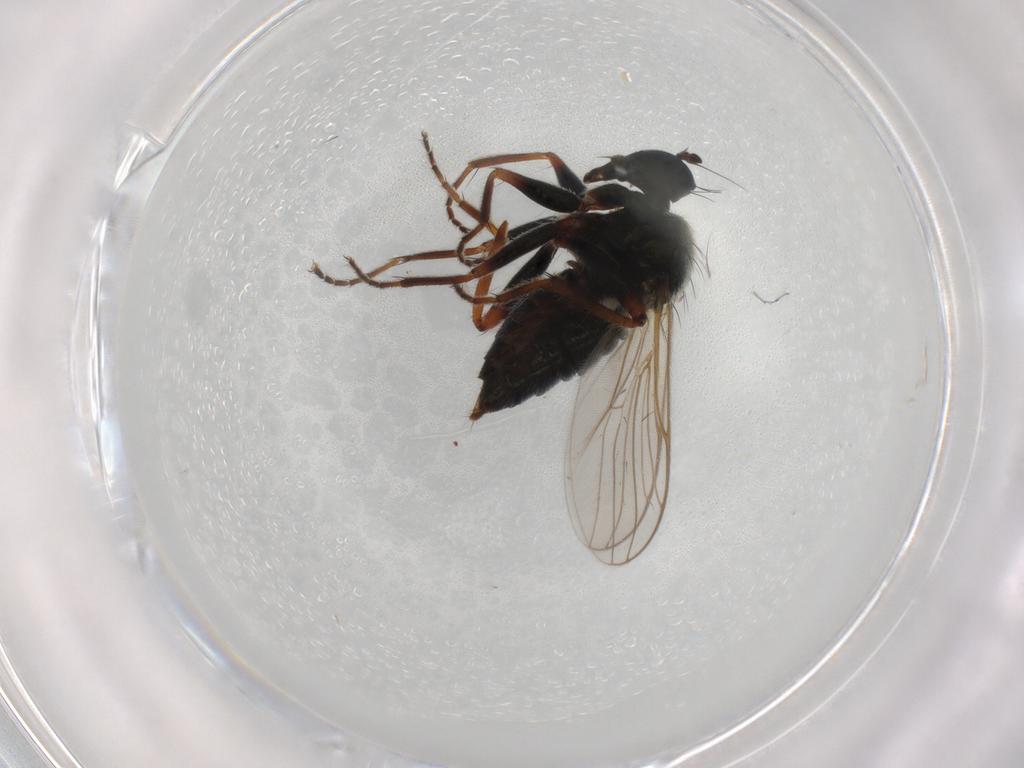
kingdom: Animalia
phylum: Arthropoda
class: Insecta
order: Diptera
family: Hybotidae
